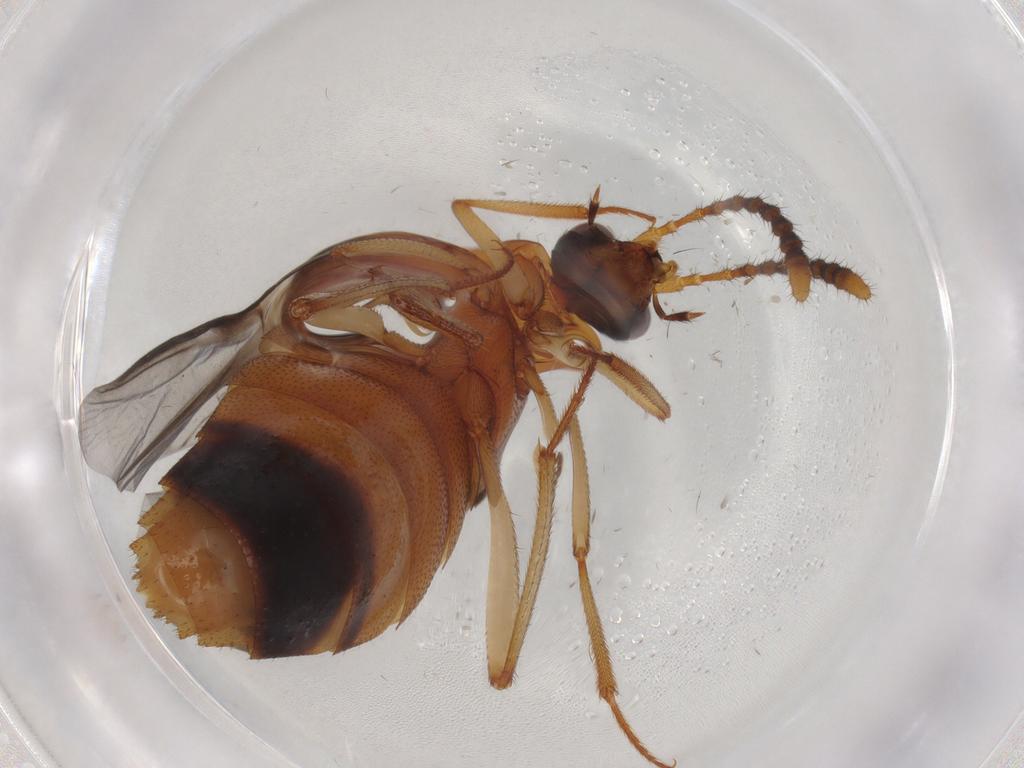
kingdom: Animalia
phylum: Arthropoda
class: Insecta
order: Coleoptera
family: Staphylinidae
